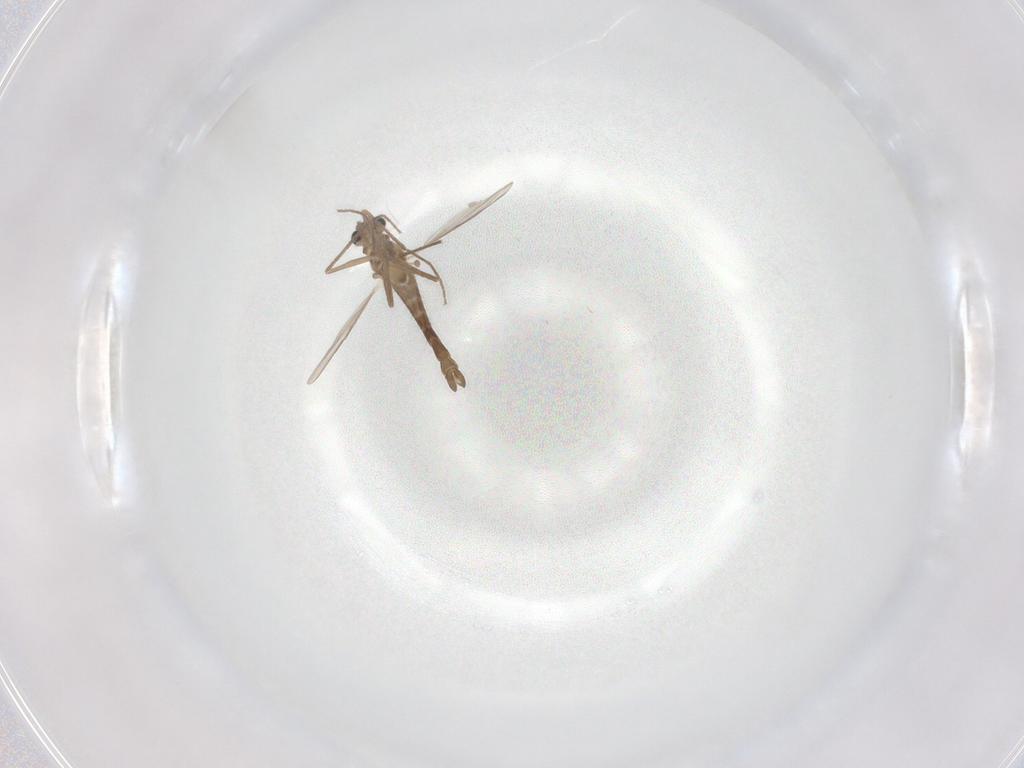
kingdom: Animalia
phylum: Arthropoda
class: Insecta
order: Diptera
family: Chironomidae
